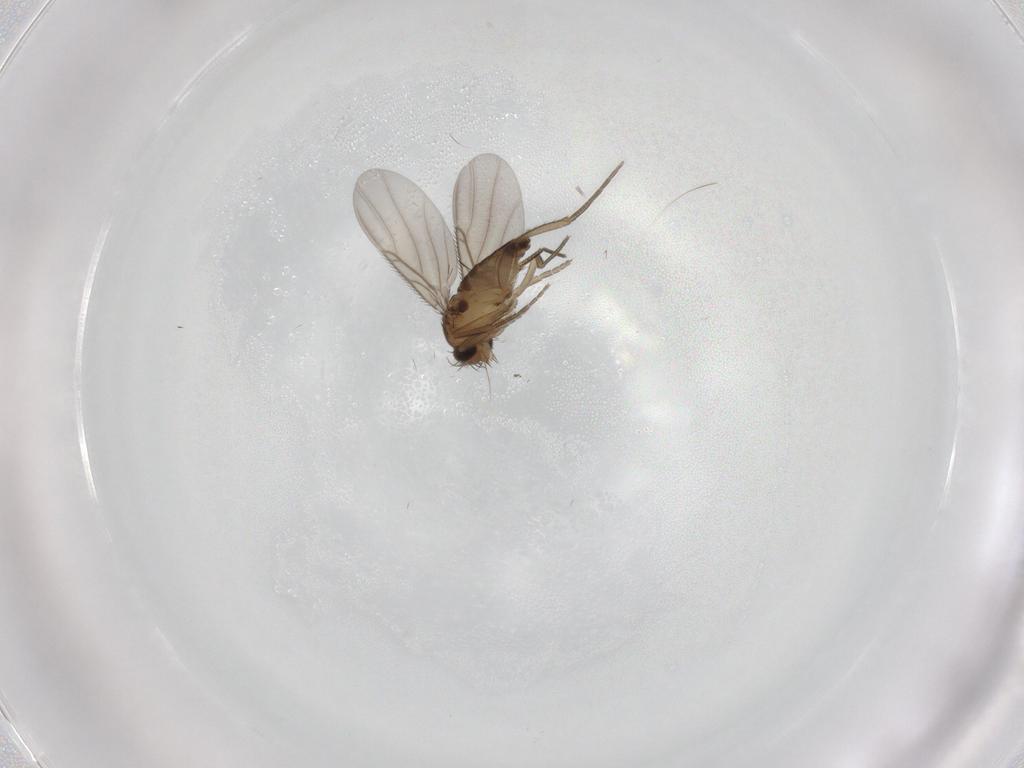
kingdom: Animalia
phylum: Arthropoda
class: Insecta
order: Diptera
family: Phoridae
